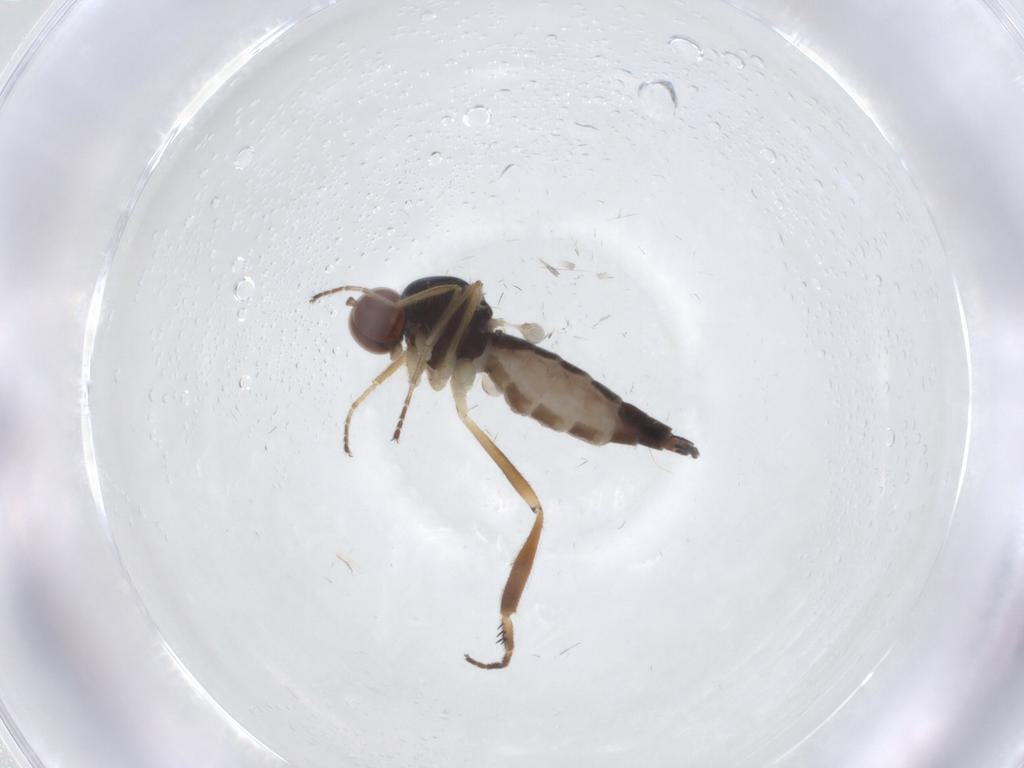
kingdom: Animalia
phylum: Arthropoda
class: Insecta
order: Diptera
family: Hybotidae
